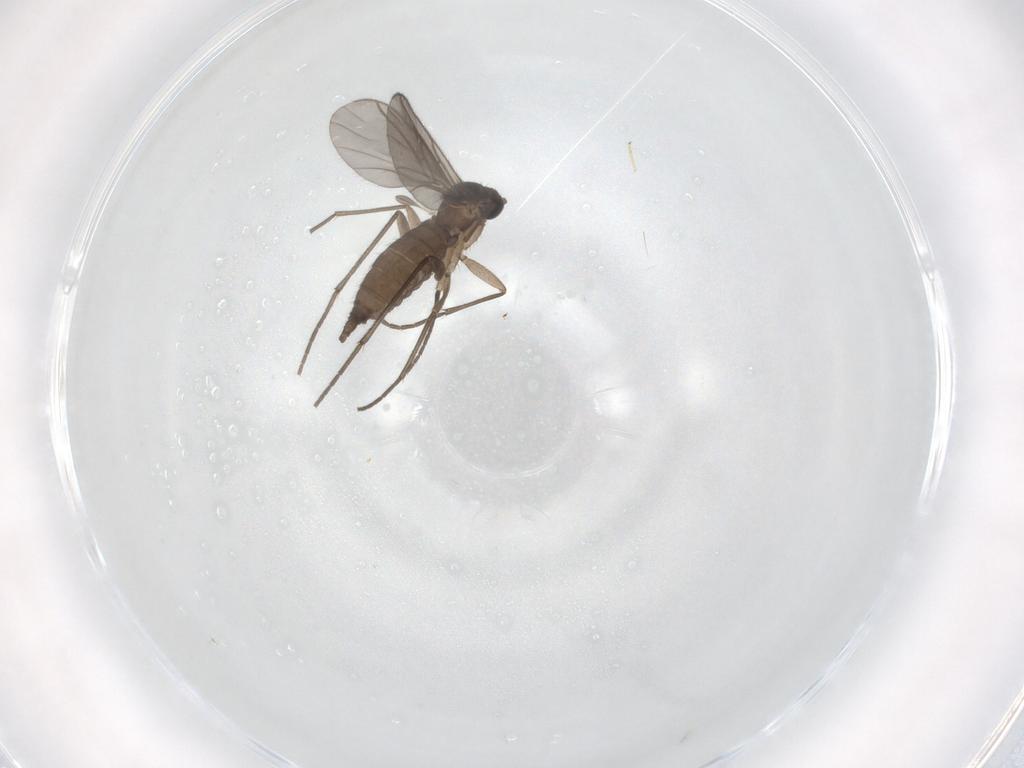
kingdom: Animalia
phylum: Arthropoda
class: Insecta
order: Diptera
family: Sciaridae
